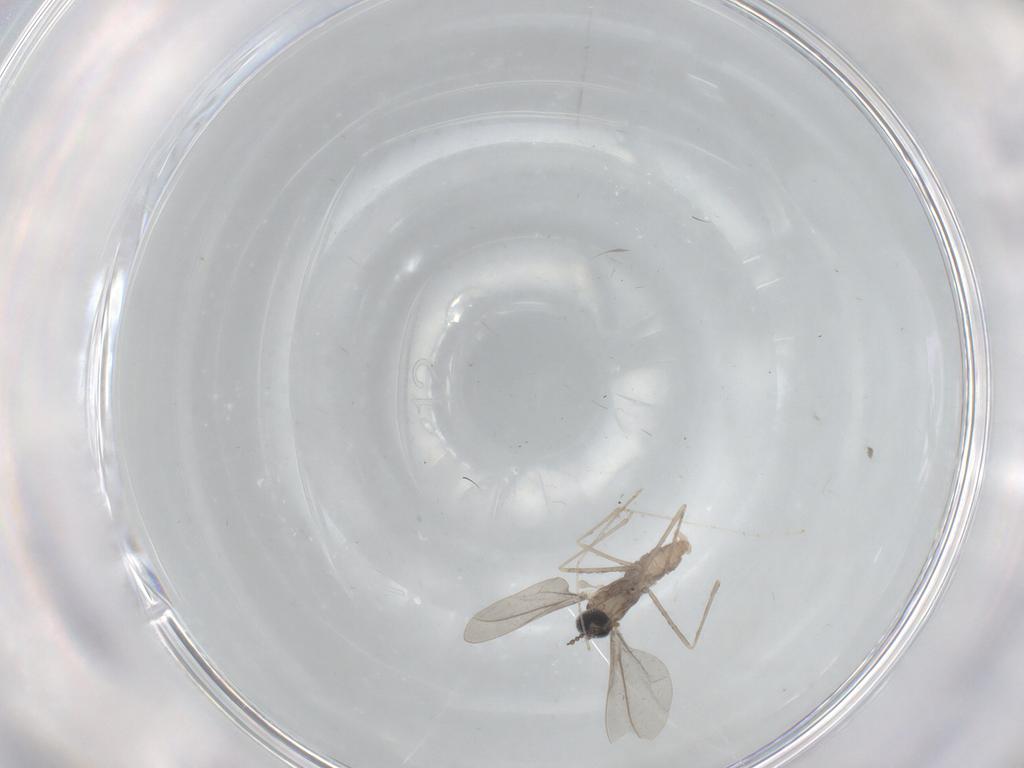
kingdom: Animalia
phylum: Arthropoda
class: Insecta
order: Diptera
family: Cecidomyiidae
